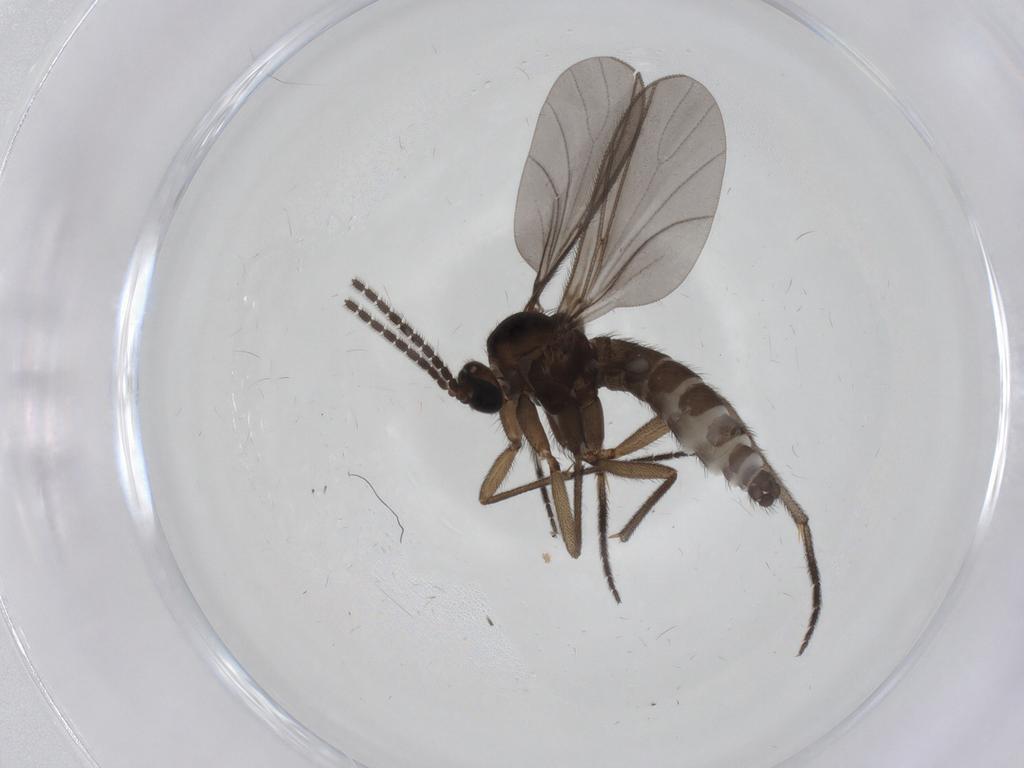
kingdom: Animalia
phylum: Arthropoda
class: Insecta
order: Diptera
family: Sciaridae
